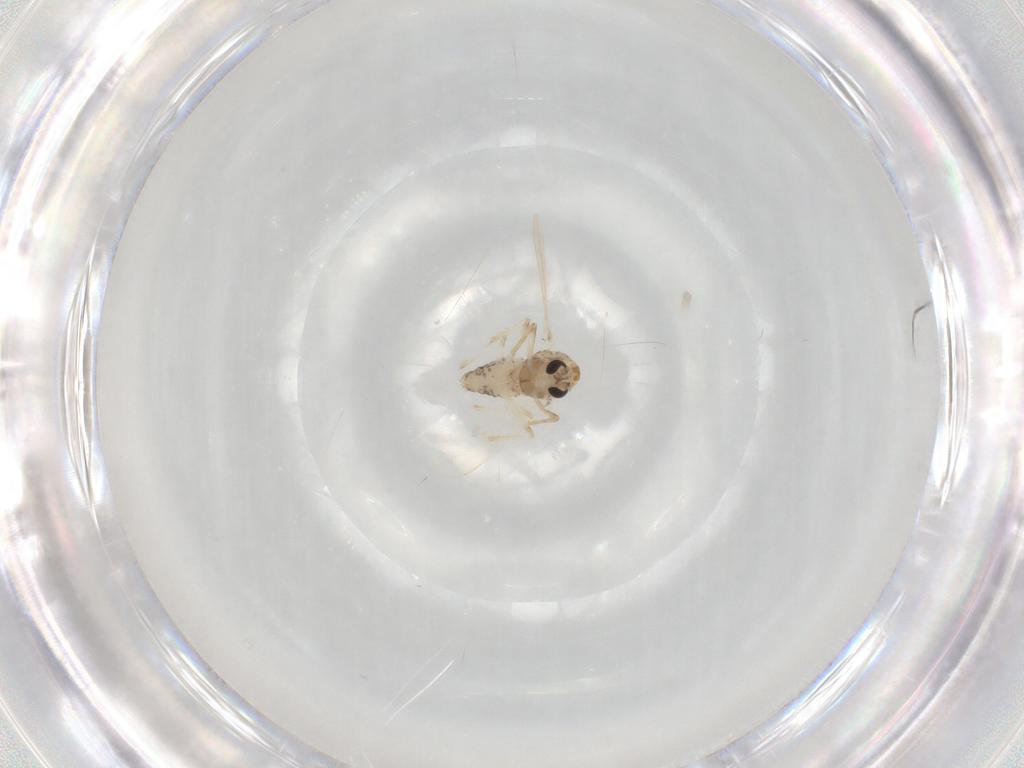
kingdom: Animalia
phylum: Arthropoda
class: Insecta
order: Diptera
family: Chironomidae
